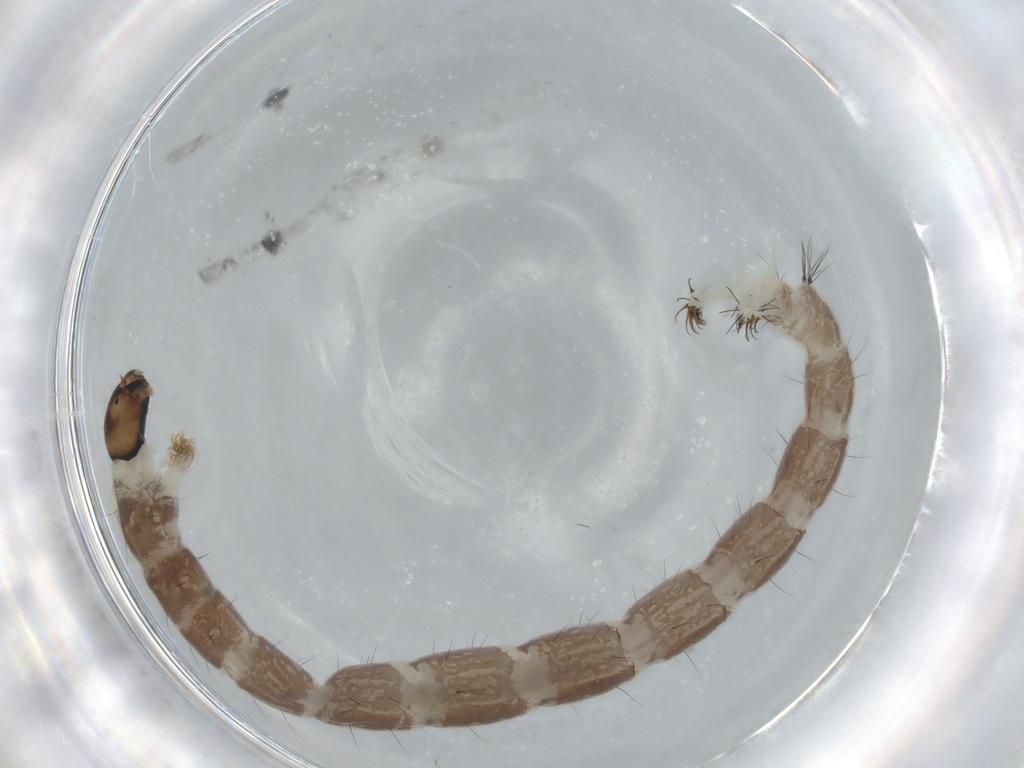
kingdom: Animalia
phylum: Arthropoda
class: Insecta
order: Diptera
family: Chironomidae
